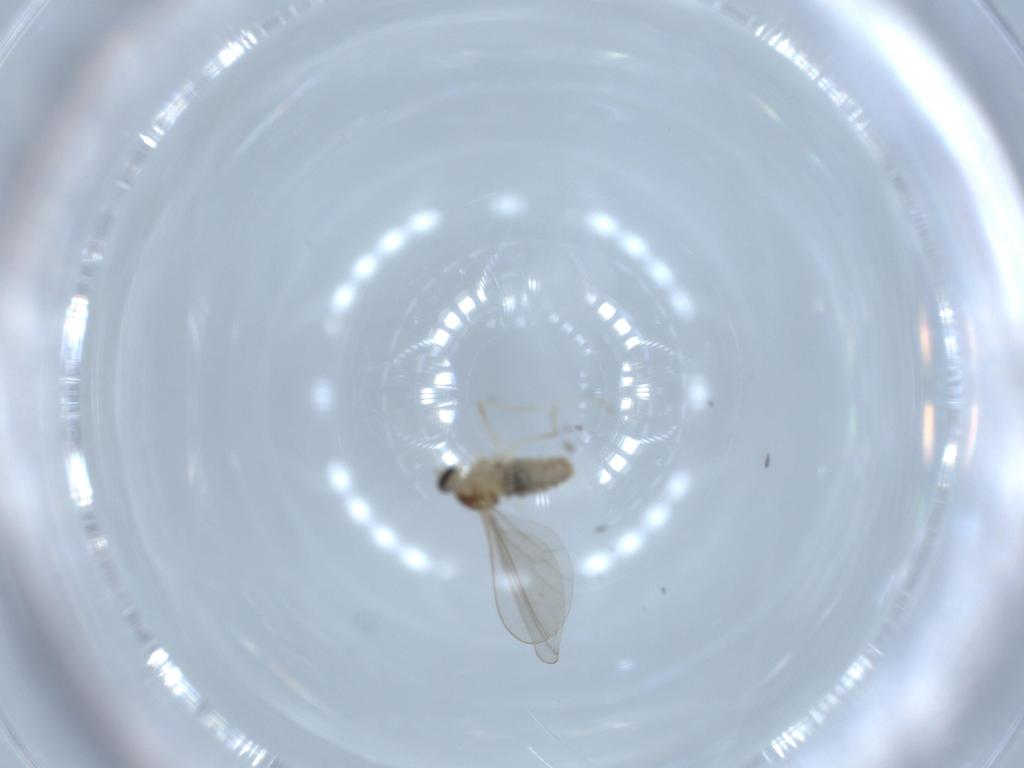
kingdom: Animalia
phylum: Arthropoda
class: Insecta
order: Diptera
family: Cecidomyiidae
